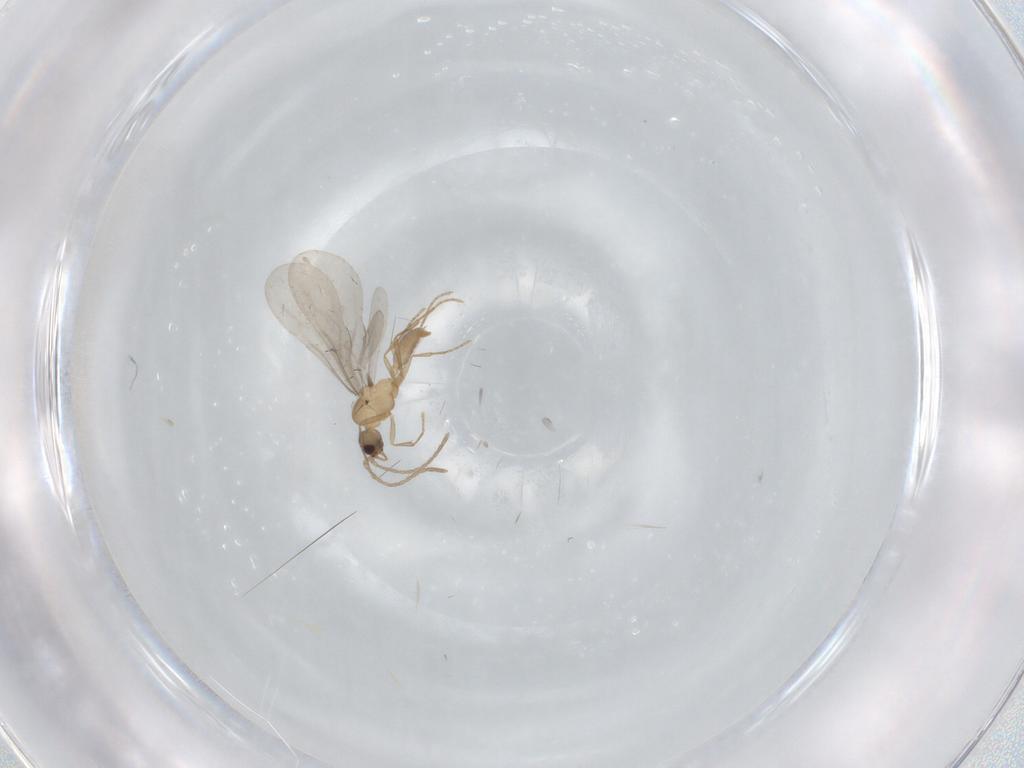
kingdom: Animalia
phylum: Arthropoda
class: Insecta
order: Hymenoptera
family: Formicidae
